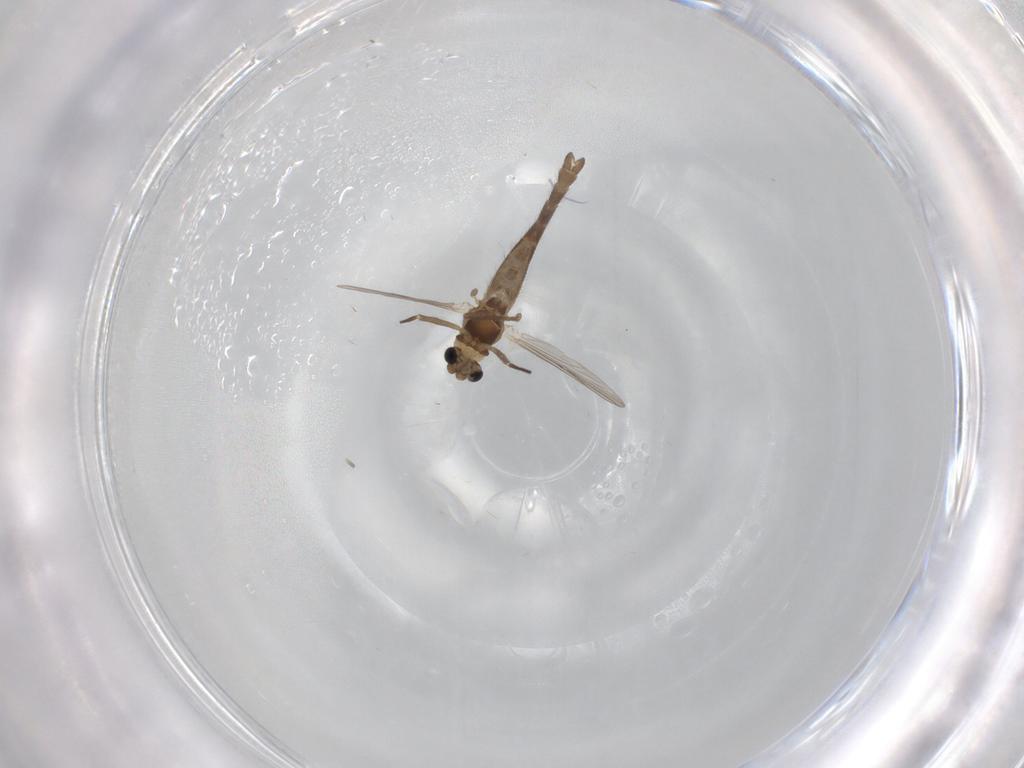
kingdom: Animalia
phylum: Arthropoda
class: Insecta
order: Diptera
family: Chironomidae
